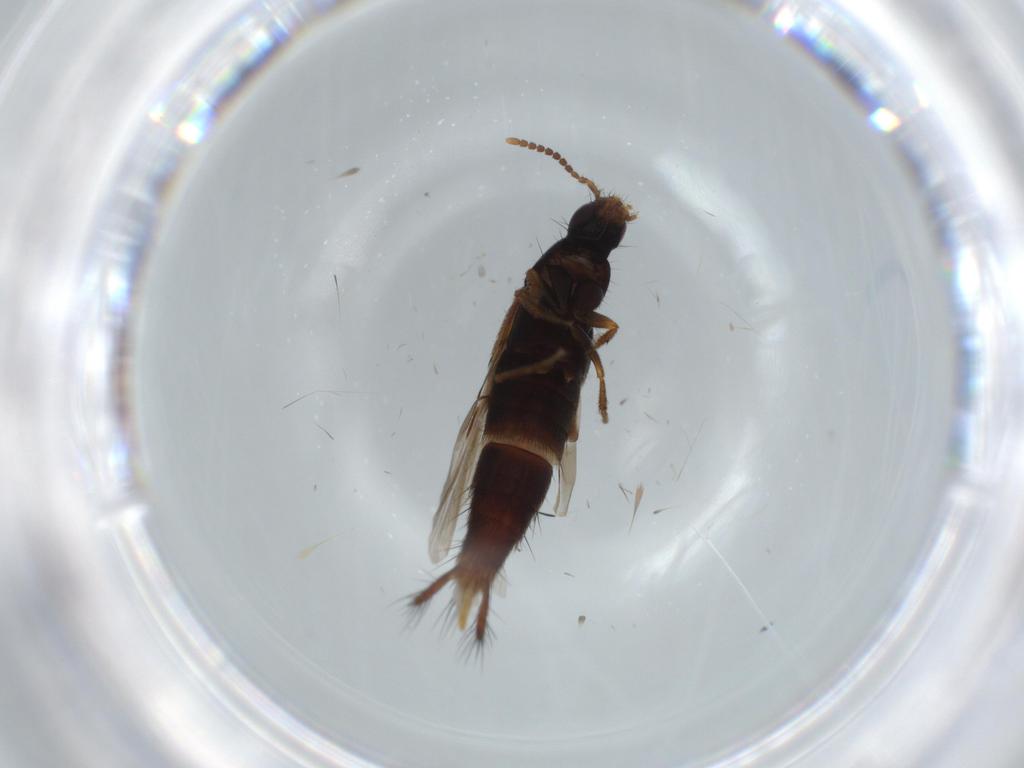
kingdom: Animalia
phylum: Arthropoda
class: Insecta
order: Coleoptera
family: Staphylinidae
